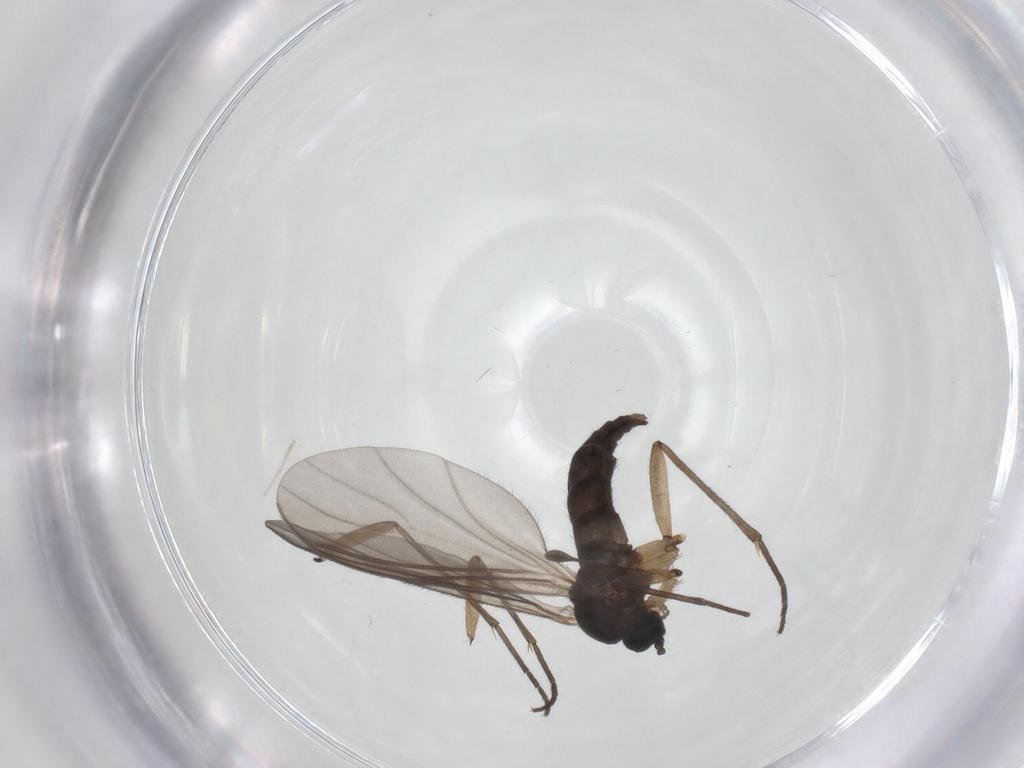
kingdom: Animalia
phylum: Arthropoda
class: Insecta
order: Diptera
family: Sciaridae
